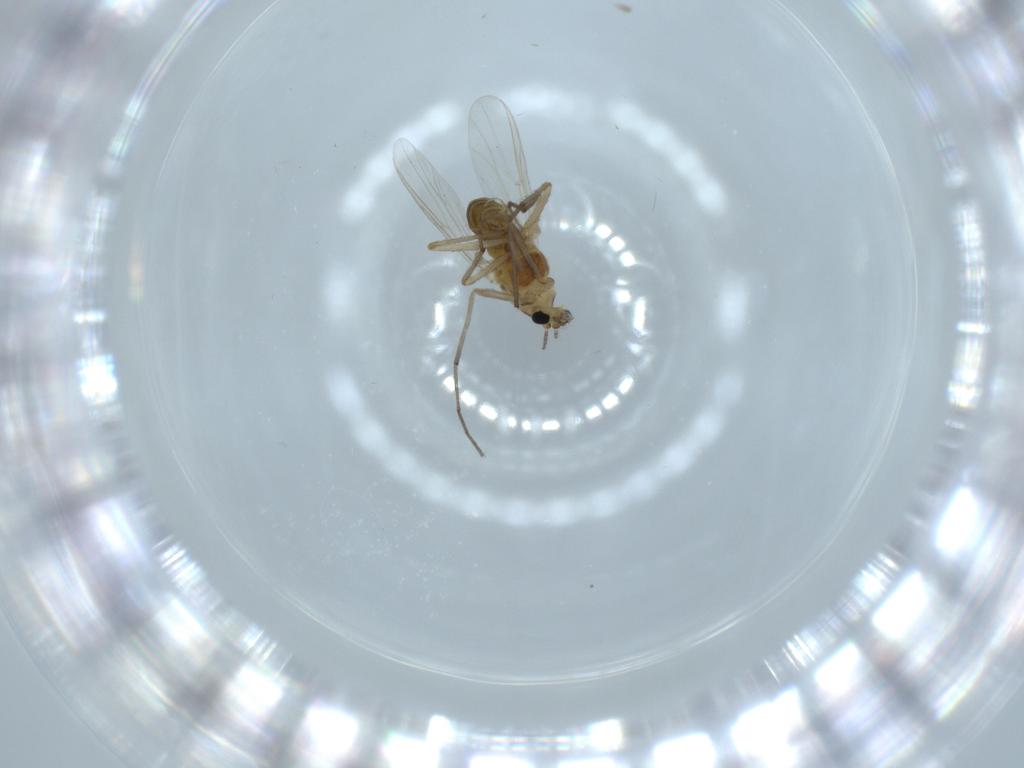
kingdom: Animalia
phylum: Arthropoda
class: Insecta
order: Diptera
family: Chironomidae
